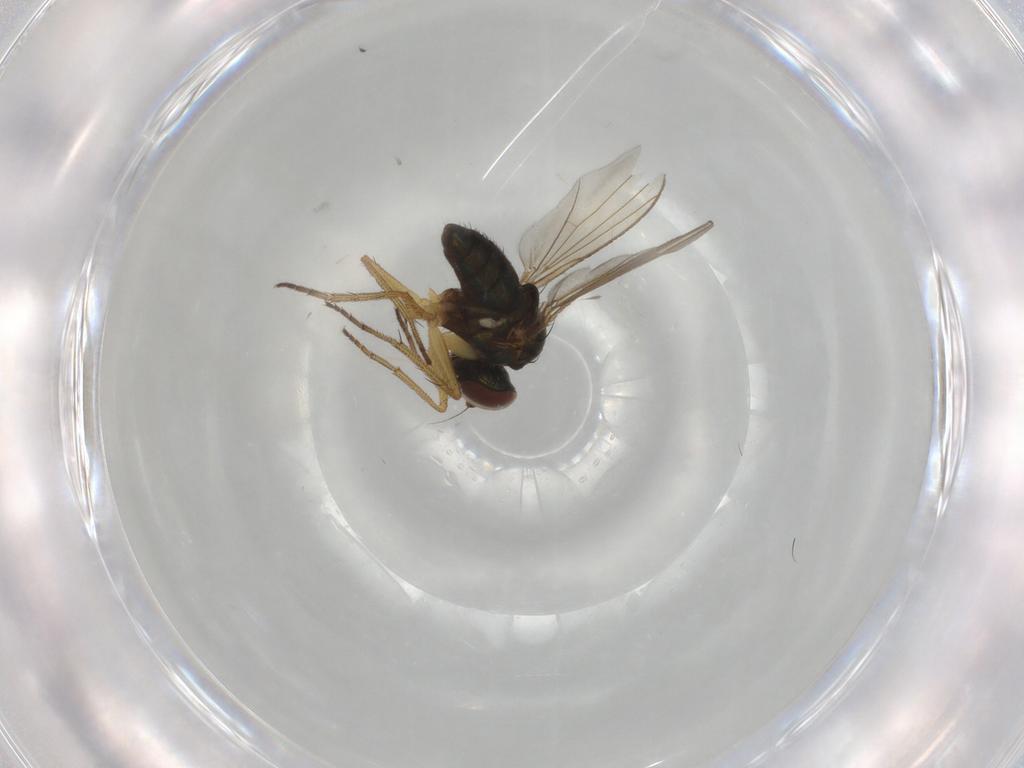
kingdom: Animalia
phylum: Arthropoda
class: Insecta
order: Diptera
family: Dolichopodidae
